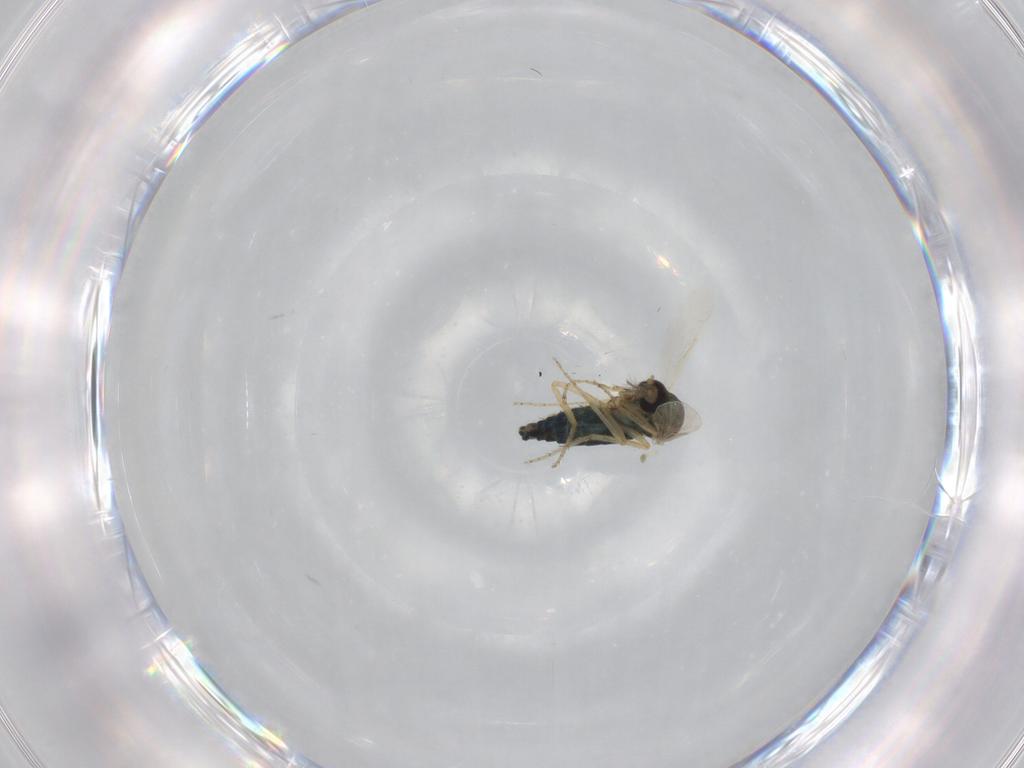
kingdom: Animalia
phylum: Arthropoda
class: Insecta
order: Diptera
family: Ceratopogonidae
